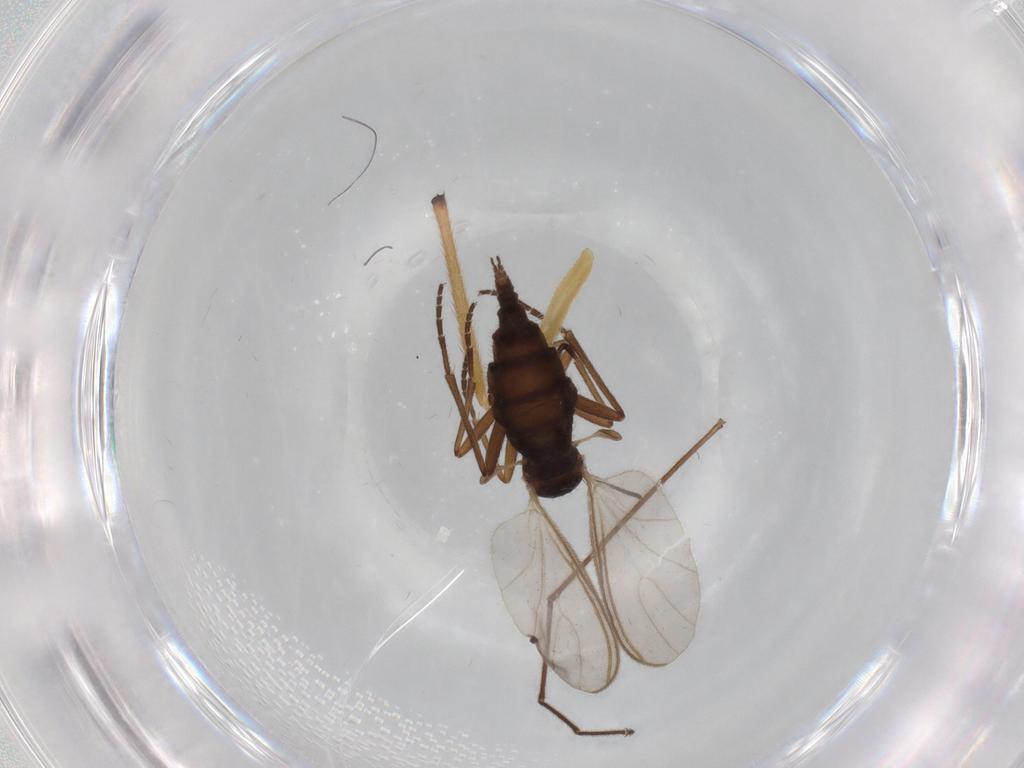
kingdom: Animalia
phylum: Arthropoda
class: Insecta
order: Diptera
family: Sciaridae
